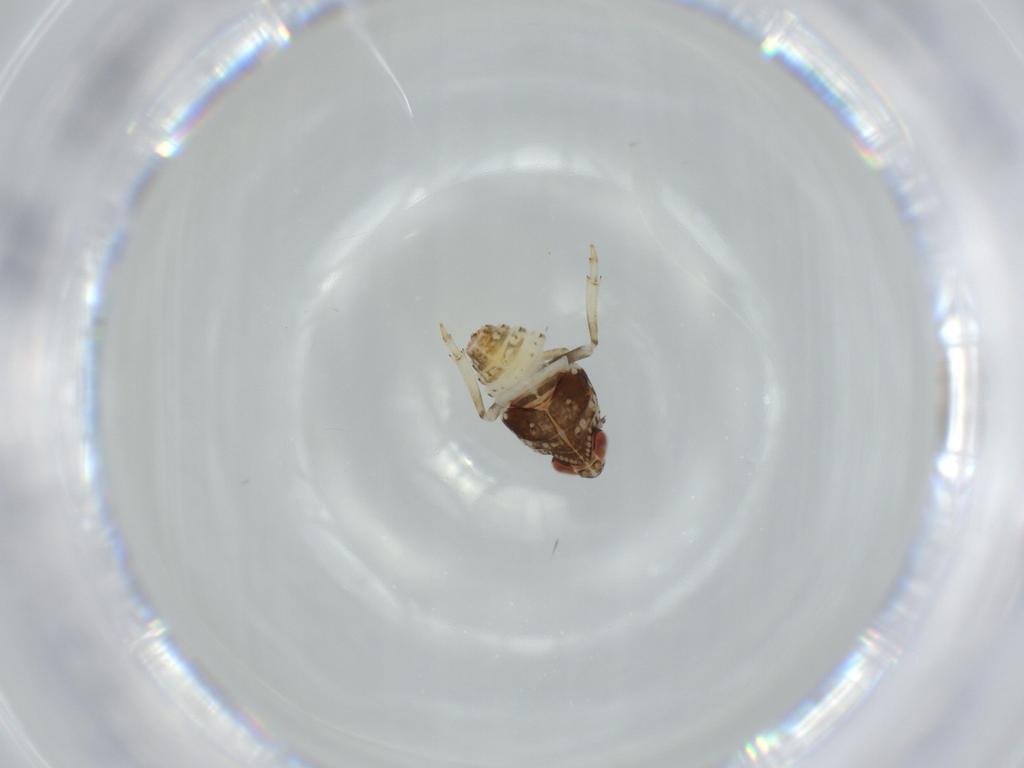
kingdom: Animalia
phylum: Arthropoda
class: Insecta
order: Hemiptera
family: Issidae
